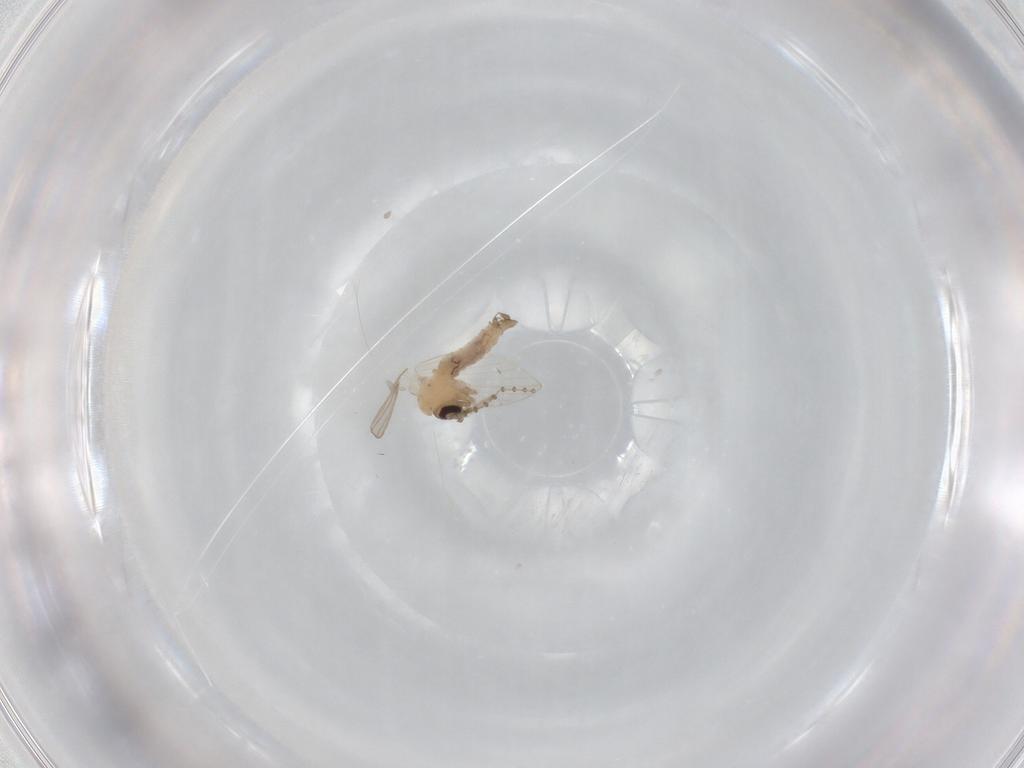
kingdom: Animalia
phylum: Arthropoda
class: Insecta
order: Diptera
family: Psychodidae
